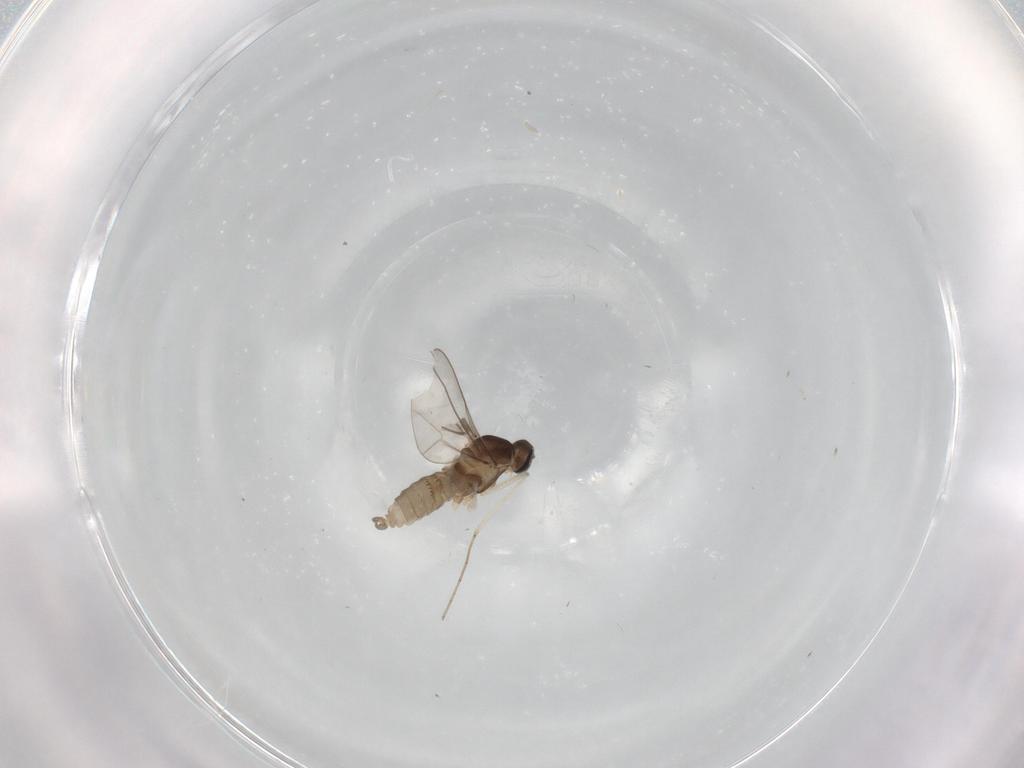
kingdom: Animalia
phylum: Arthropoda
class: Insecta
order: Diptera
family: Cecidomyiidae
